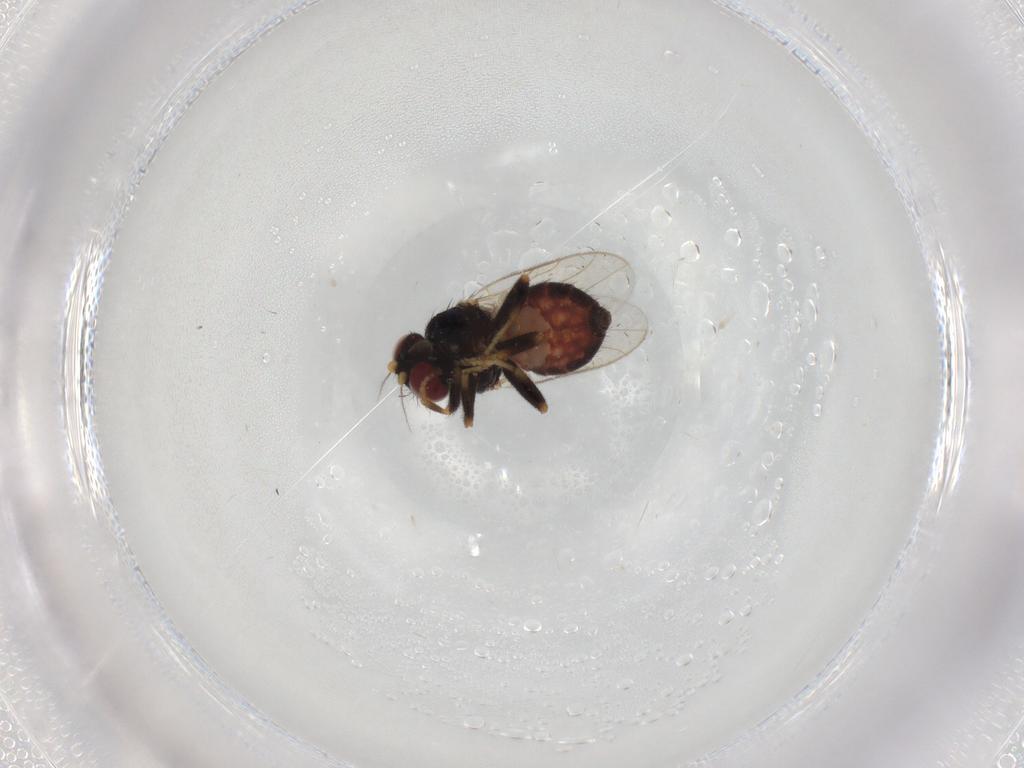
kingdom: Animalia
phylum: Arthropoda
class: Insecta
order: Diptera
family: Chloropidae
